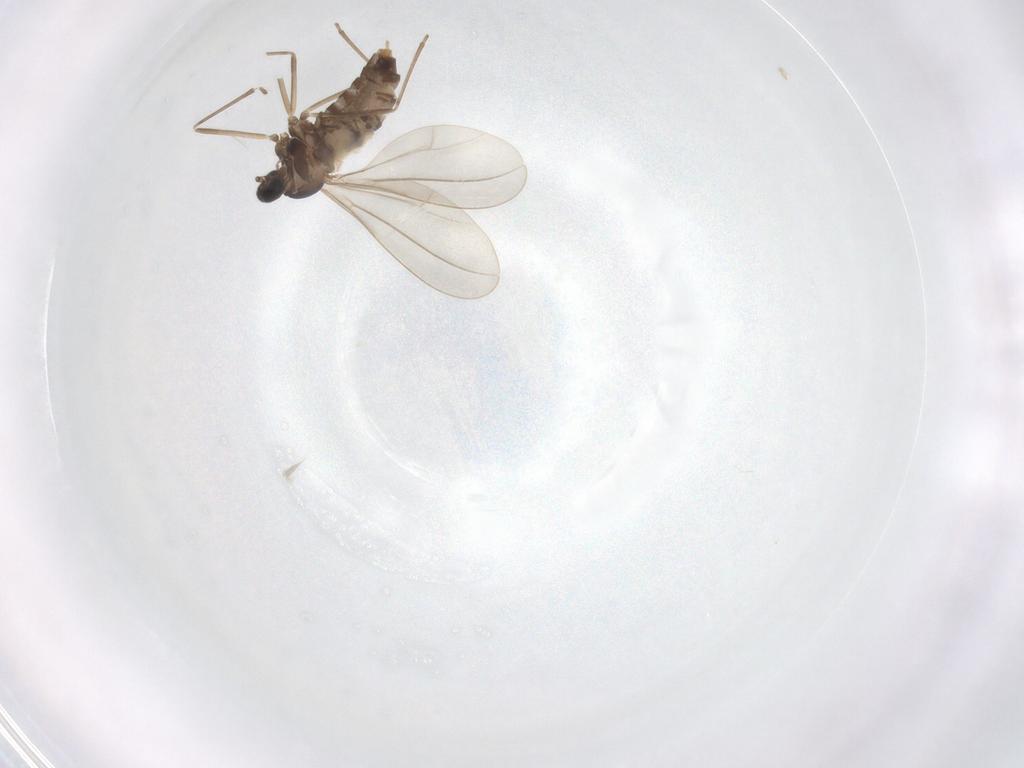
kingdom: Animalia
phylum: Arthropoda
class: Insecta
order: Diptera
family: Cecidomyiidae
